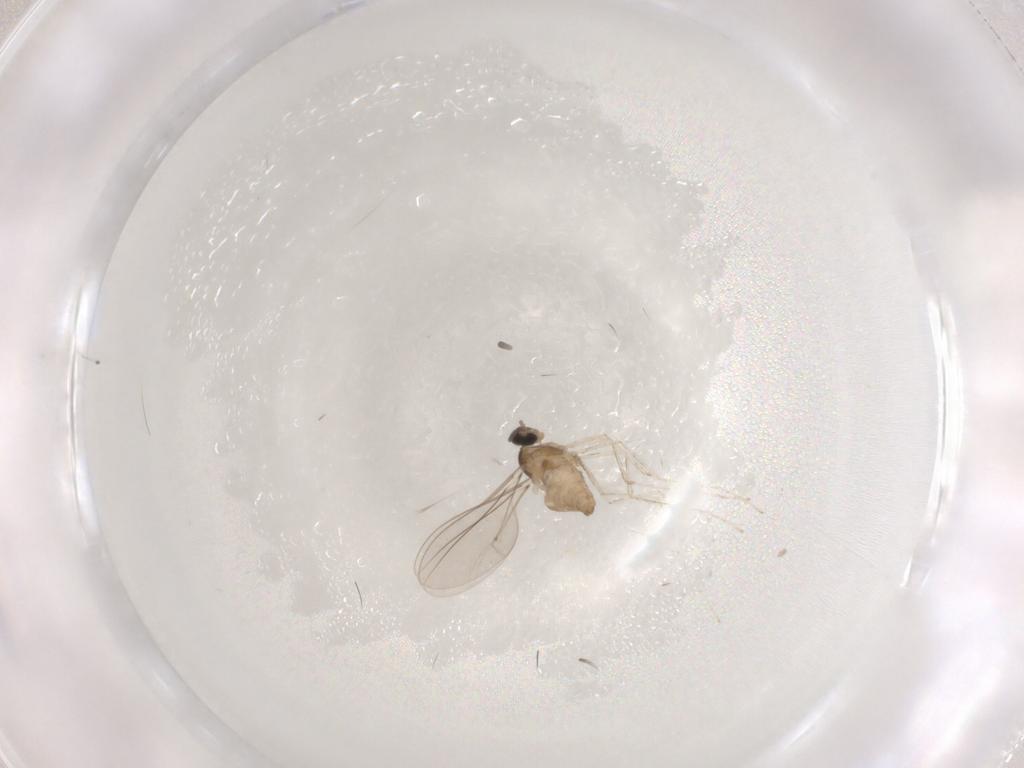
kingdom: Animalia
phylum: Arthropoda
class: Insecta
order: Diptera
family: Cecidomyiidae
